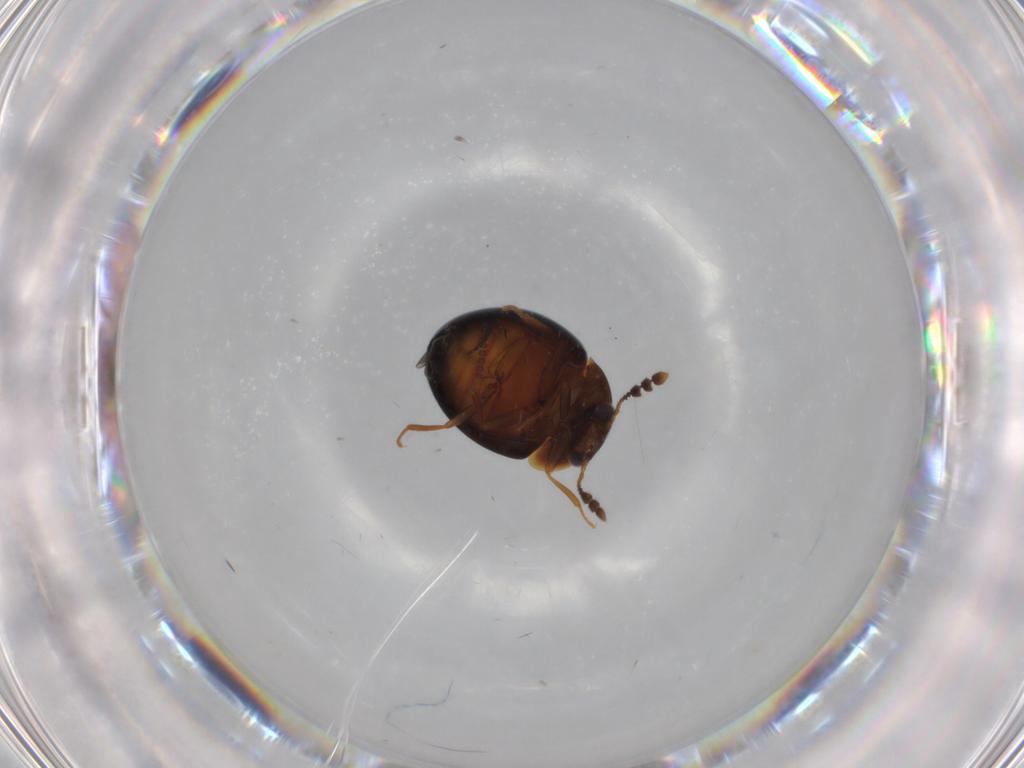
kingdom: Animalia
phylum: Arthropoda
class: Insecta
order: Coleoptera
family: Leiodidae
